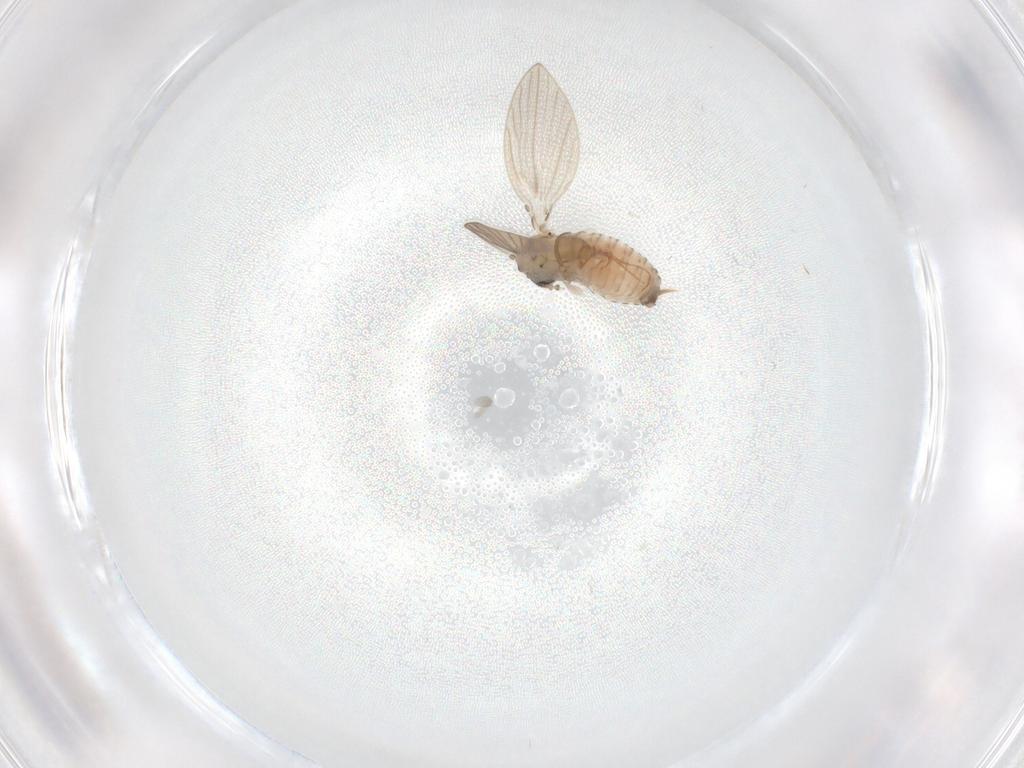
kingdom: Animalia
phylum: Arthropoda
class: Insecta
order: Diptera
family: Psychodidae
